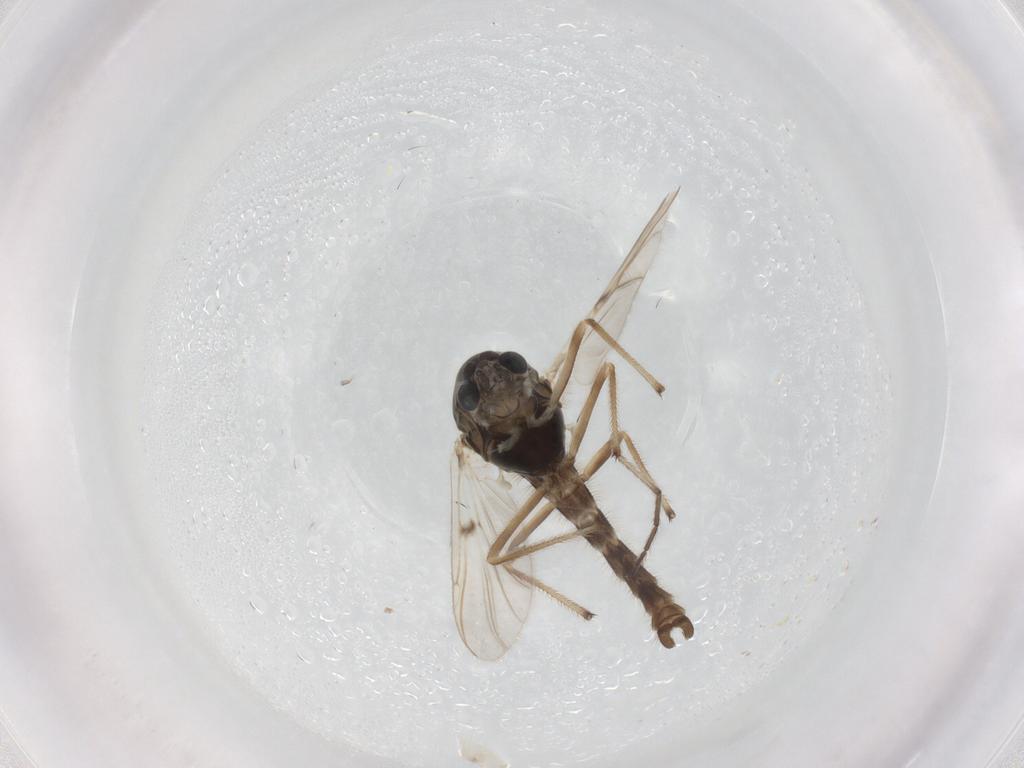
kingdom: Animalia
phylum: Arthropoda
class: Insecta
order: Diptera
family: Chironomidae
